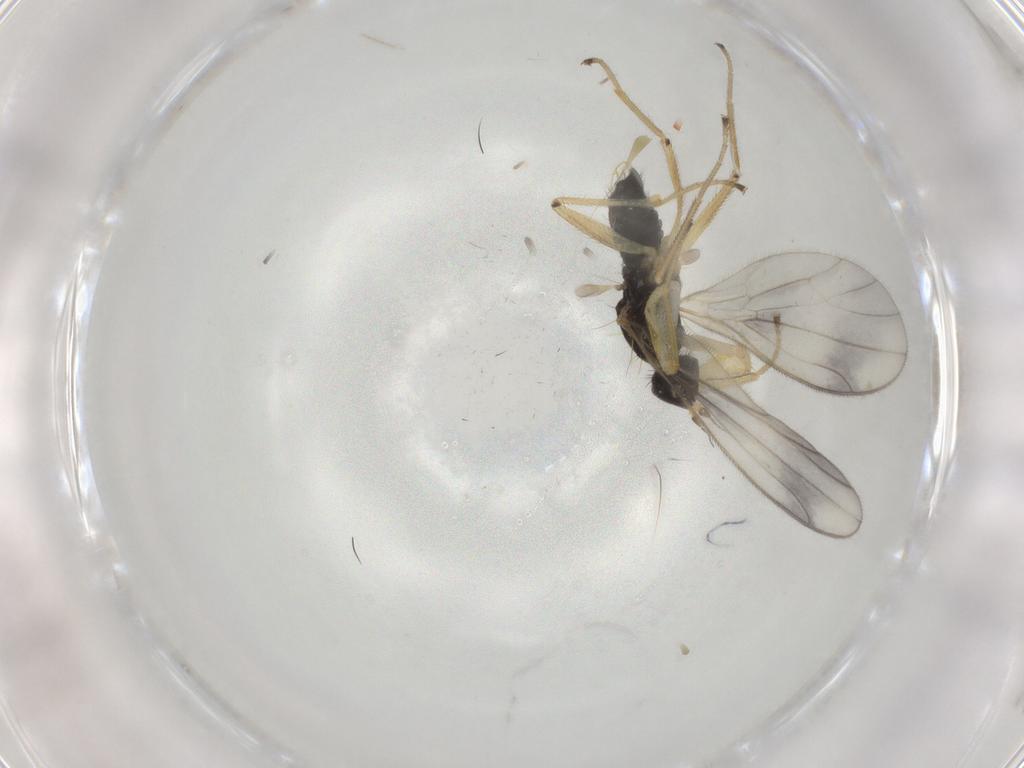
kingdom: Animalia
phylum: Arthropoda
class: Insecta
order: Diptera
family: Empididae
